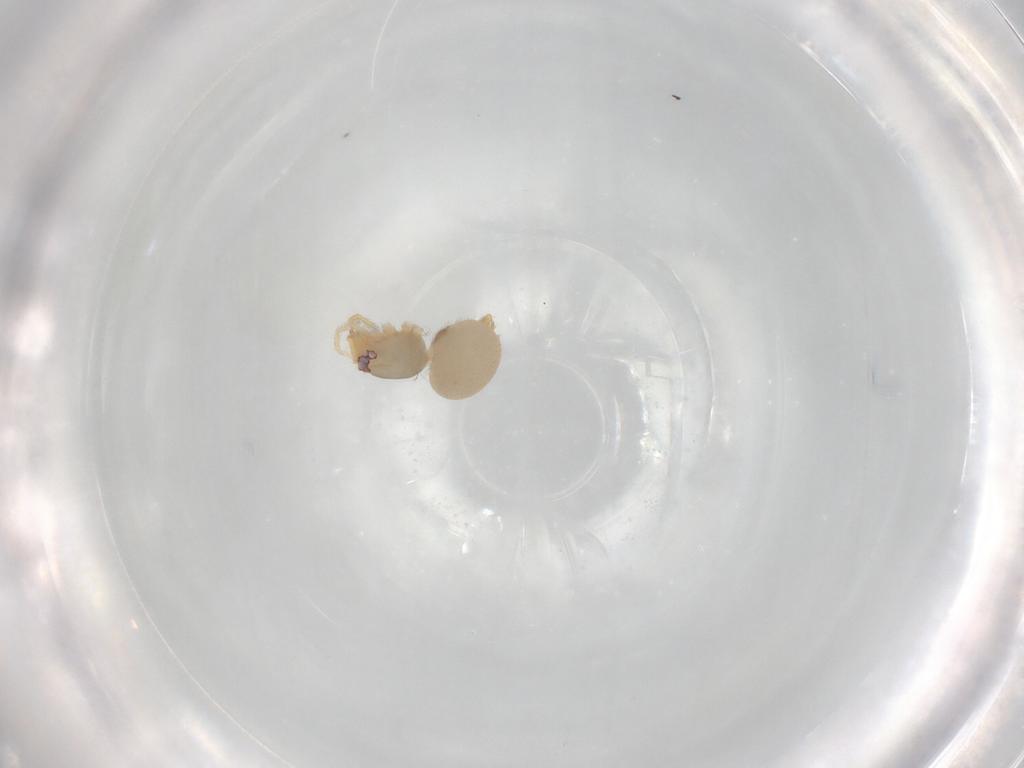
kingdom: Animalia
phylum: Arthropoda
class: Arachnida
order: Araneae
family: Oonopidae
